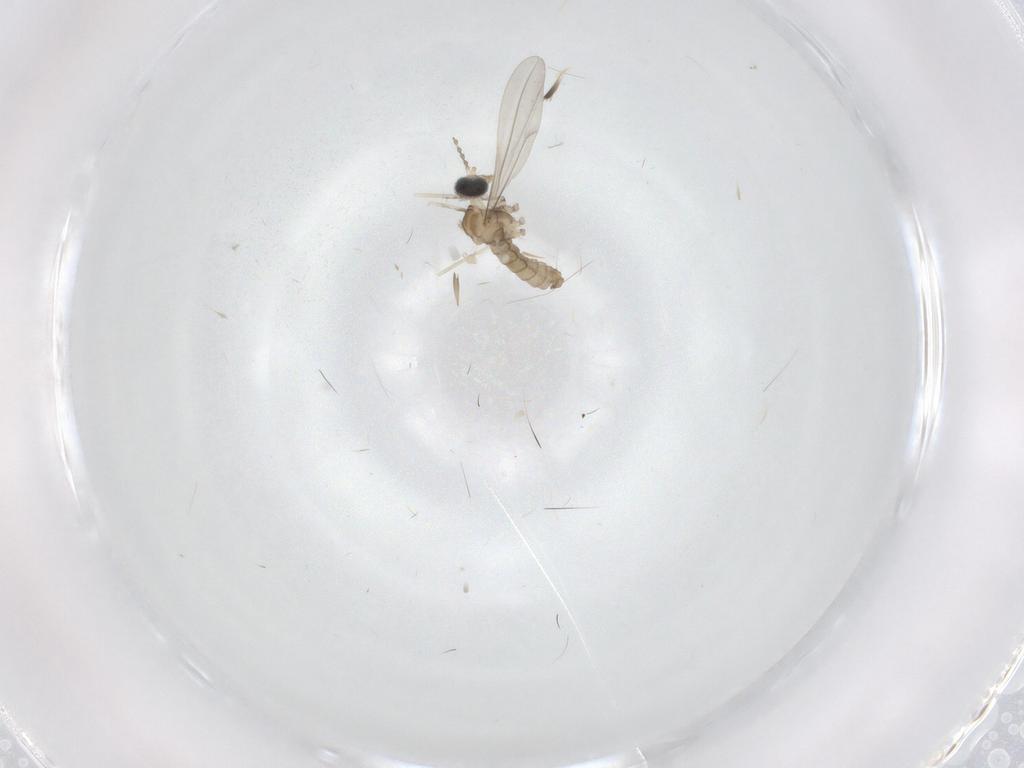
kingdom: Animalia
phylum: Arthropoda
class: Insecta
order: Diptera
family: Cecidomyiidae
